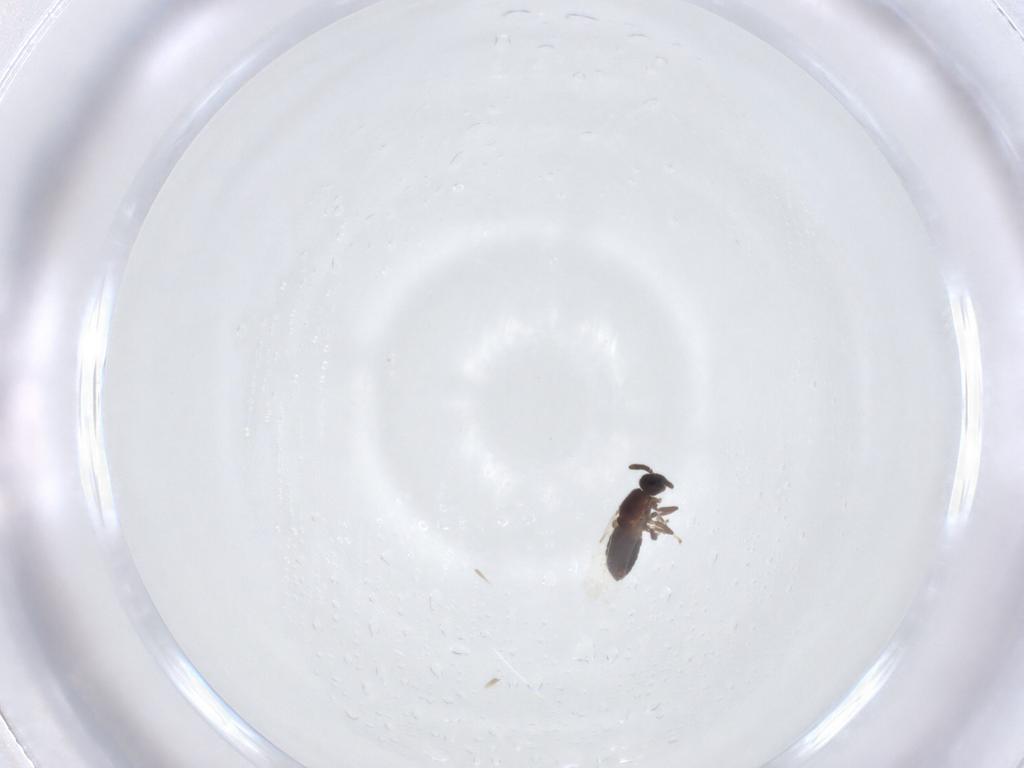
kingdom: Animalia
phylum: Arthropoda
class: Insecta
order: Diptera
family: Scatopsidae
